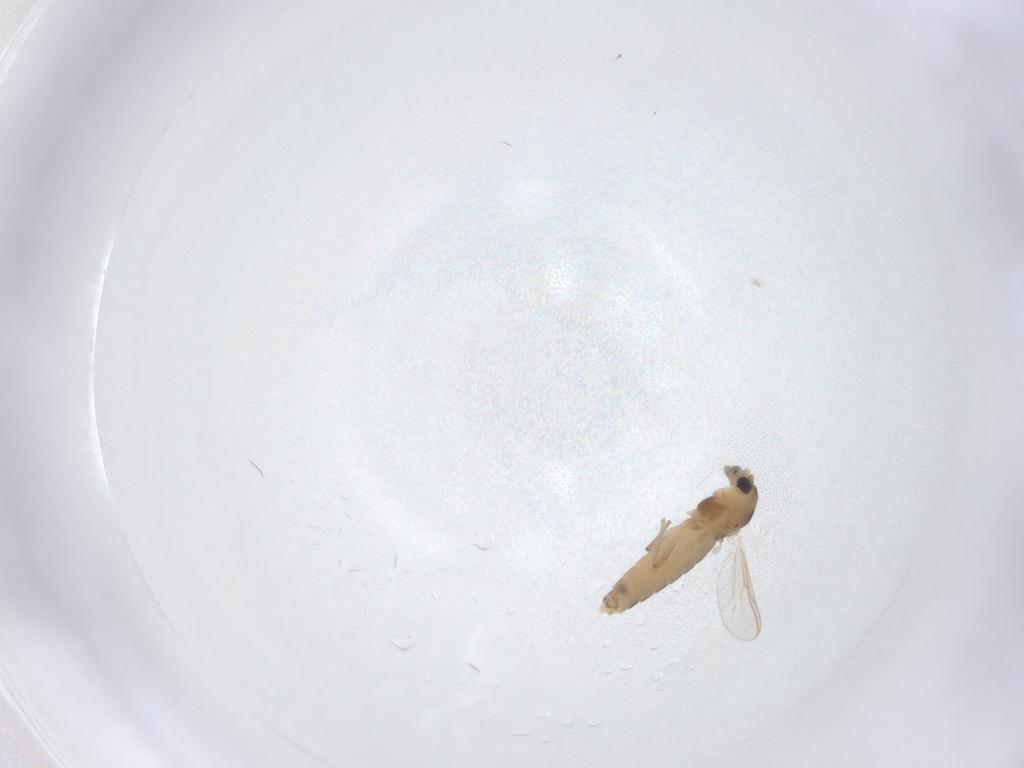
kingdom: Animalia
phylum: Arthropoda
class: Insecta
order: Diptera
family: Chironomidae
